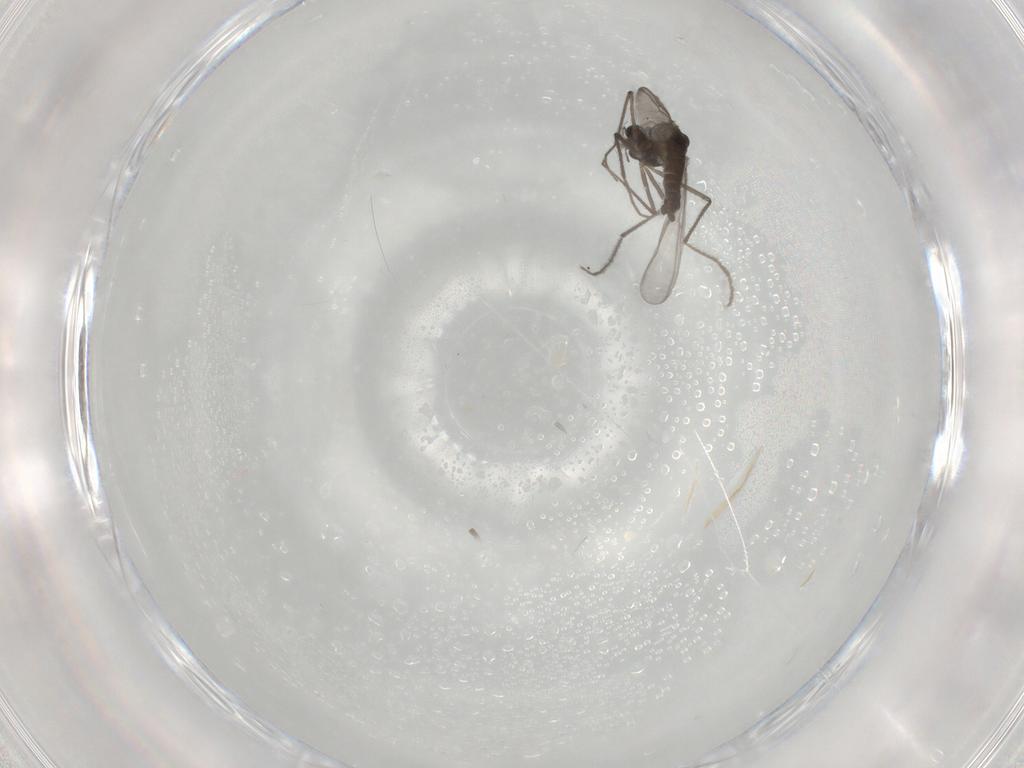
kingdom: Animalia
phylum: Arthropoda
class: Insecta
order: Diptera
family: Chironomidae
